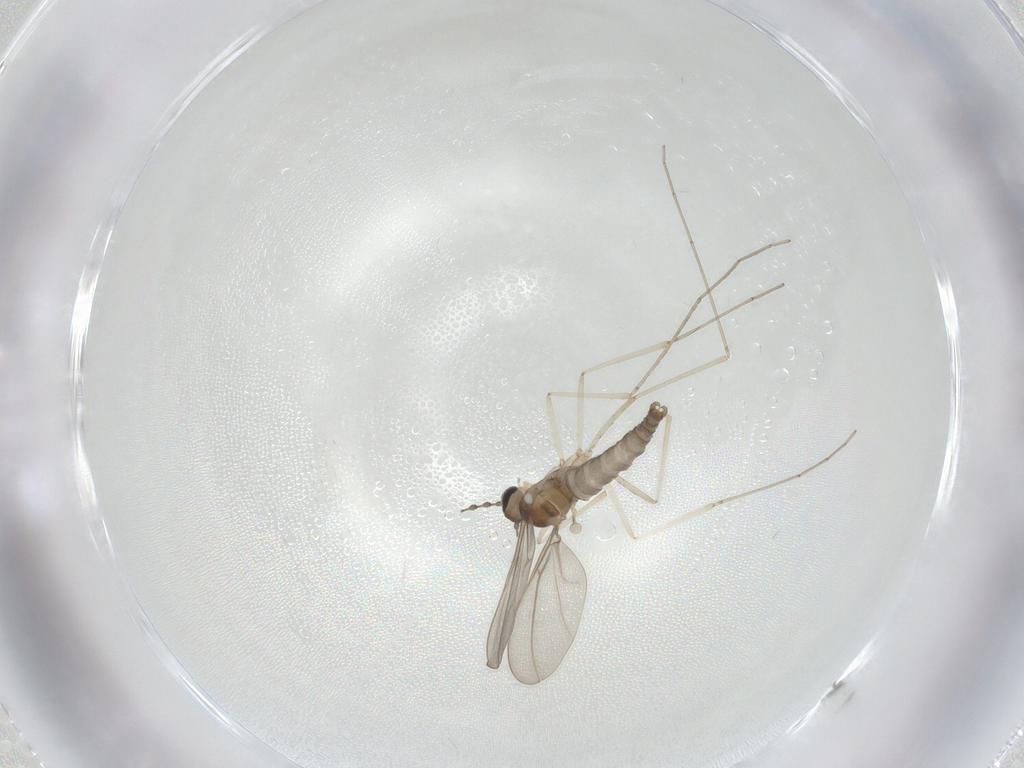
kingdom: Animalia
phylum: Arthropoda
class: Insecta
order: Diptera
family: Sciaridae
